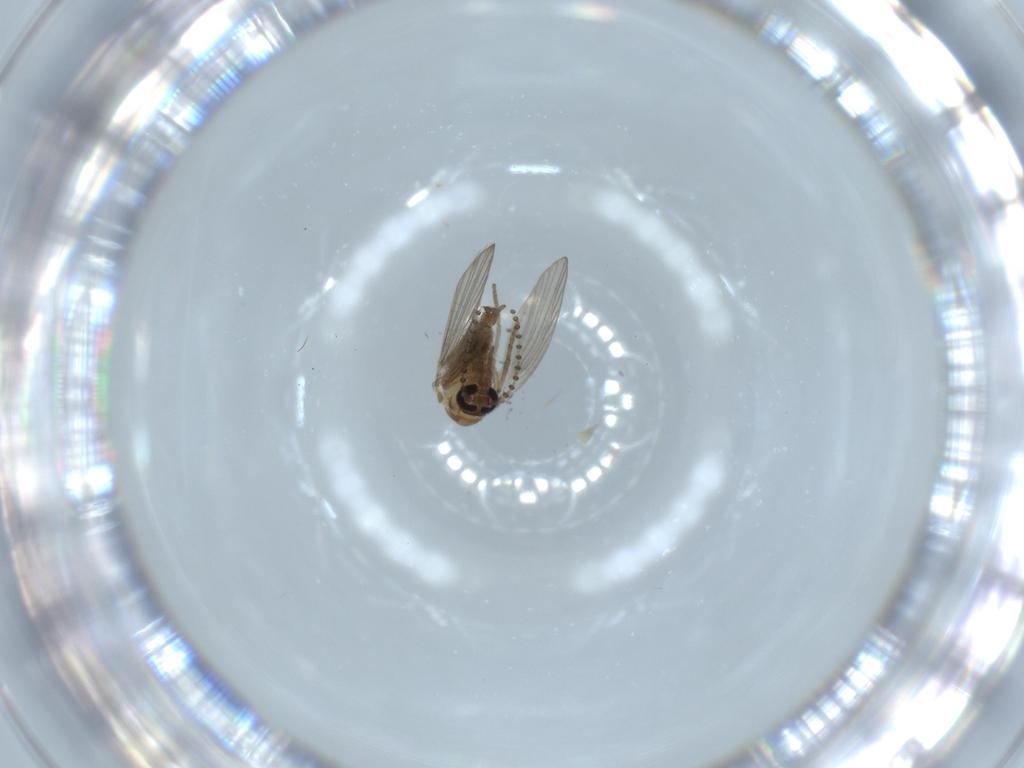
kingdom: Animalia
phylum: Arthropoda
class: Insecta
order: Diptera
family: Psychodidae
